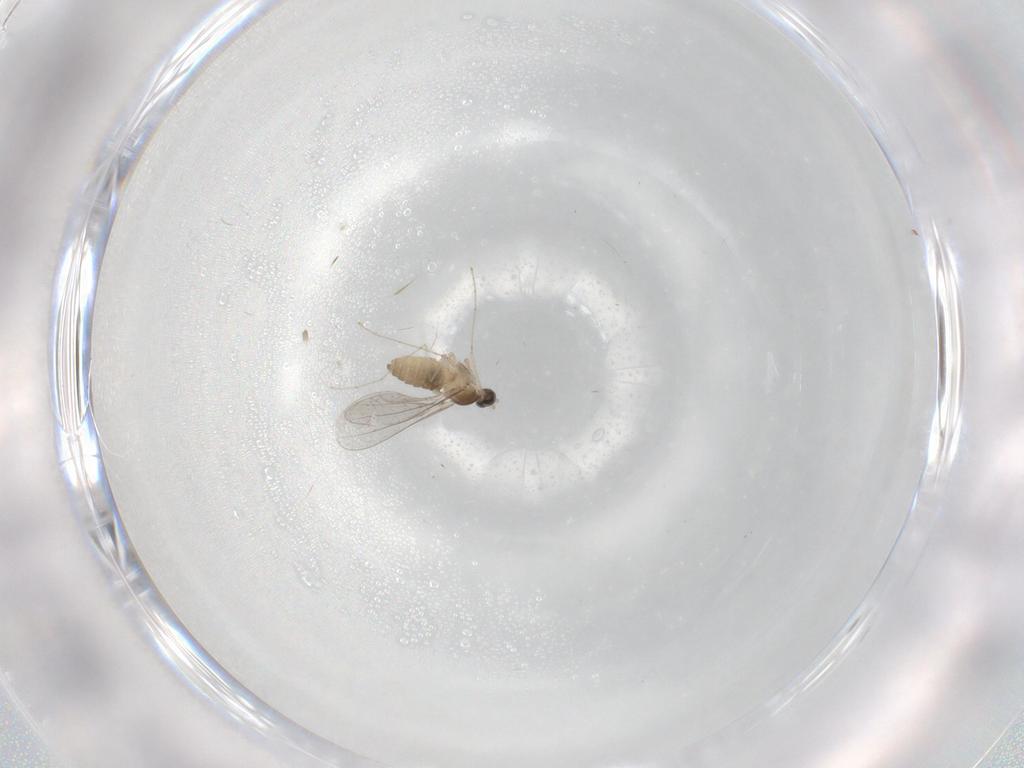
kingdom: Animalia
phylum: Arthropoda
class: Insecta
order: Diptera
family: Cecidomyiidae
